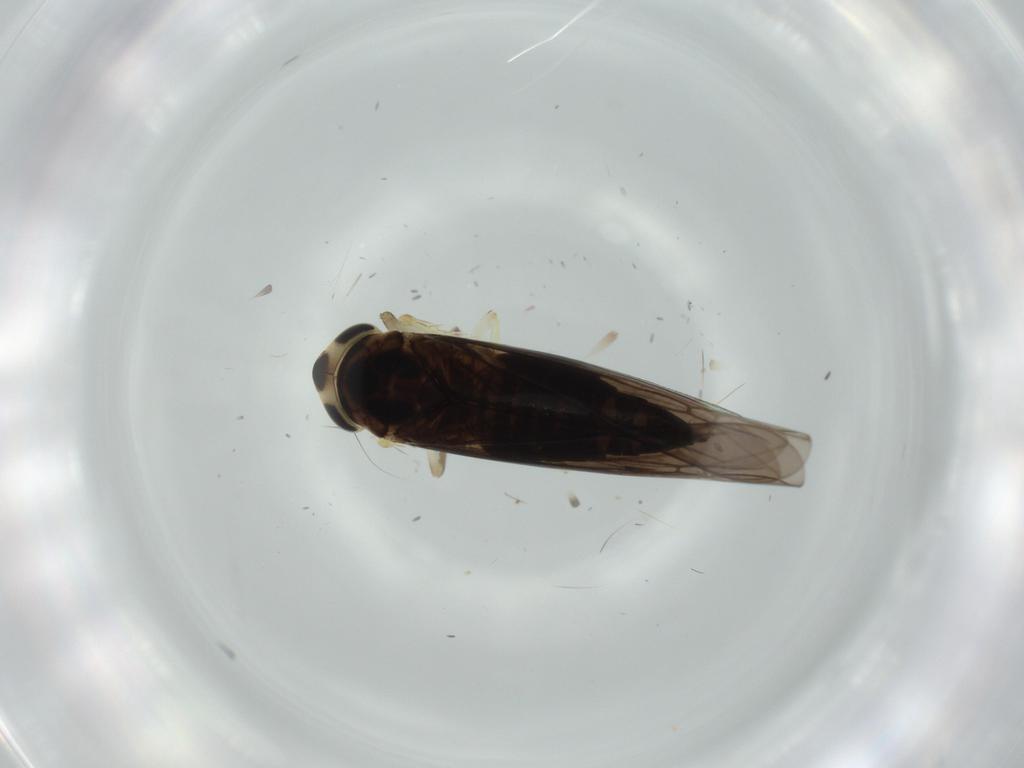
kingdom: Animalia
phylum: Arthropoda
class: Insecta
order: Hemiptera
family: Cicadellidae
